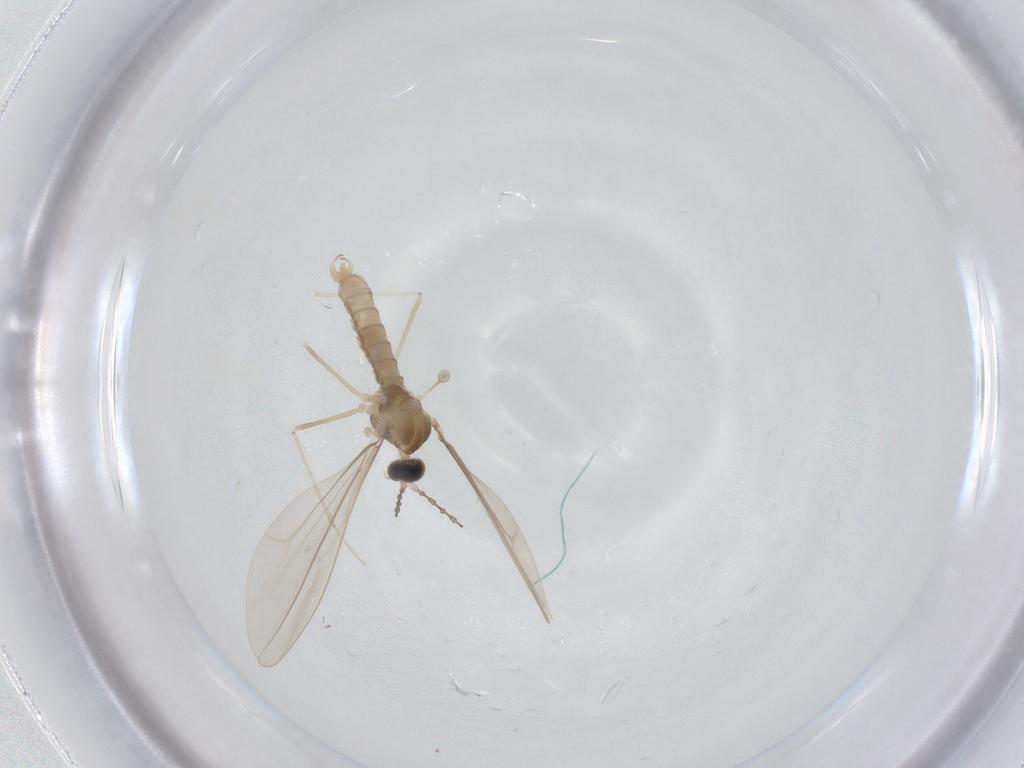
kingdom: Animalia
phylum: Arthropoda
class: Insecta
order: Diptera
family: Cecidomyiidae
